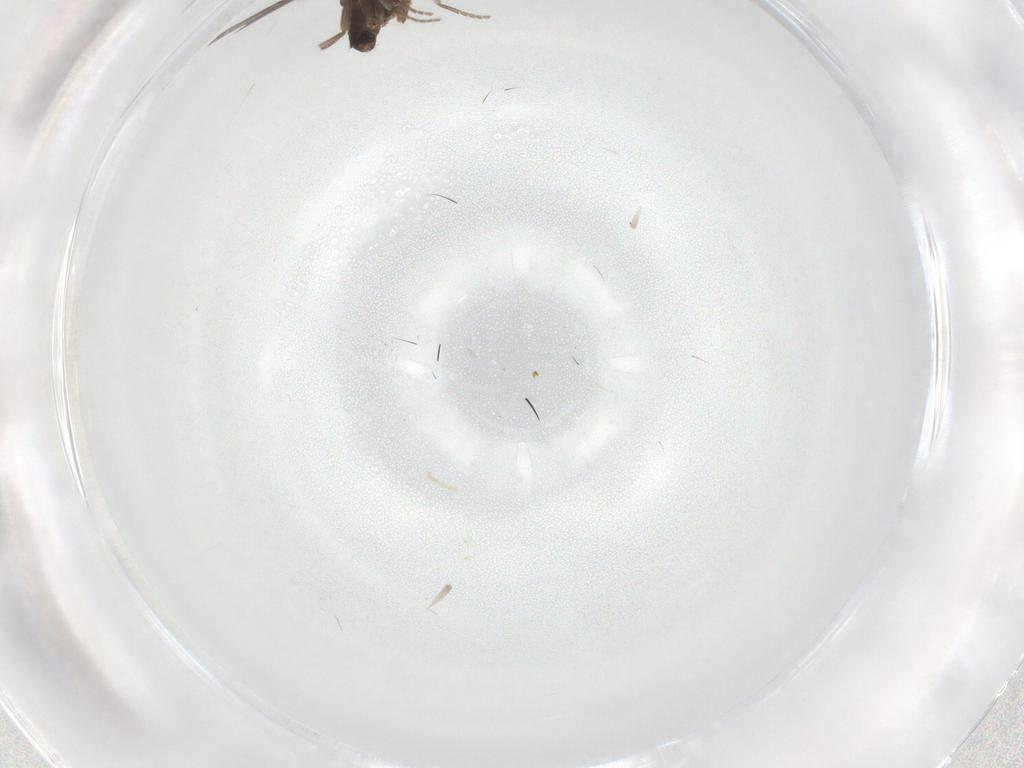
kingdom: Animalia
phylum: Arthropoda
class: Insecta
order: Diptera
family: Phoridae
